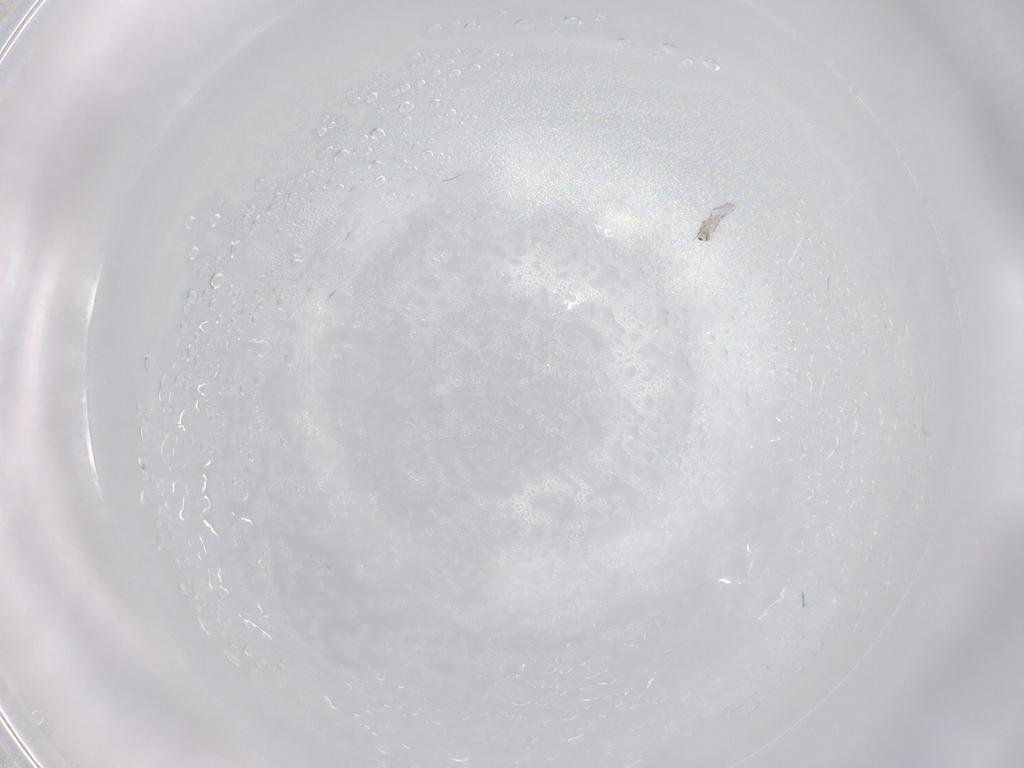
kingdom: Animalia
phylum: Arthropoda
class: Collembola
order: Entomobryomorpha
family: Entomobryidae
